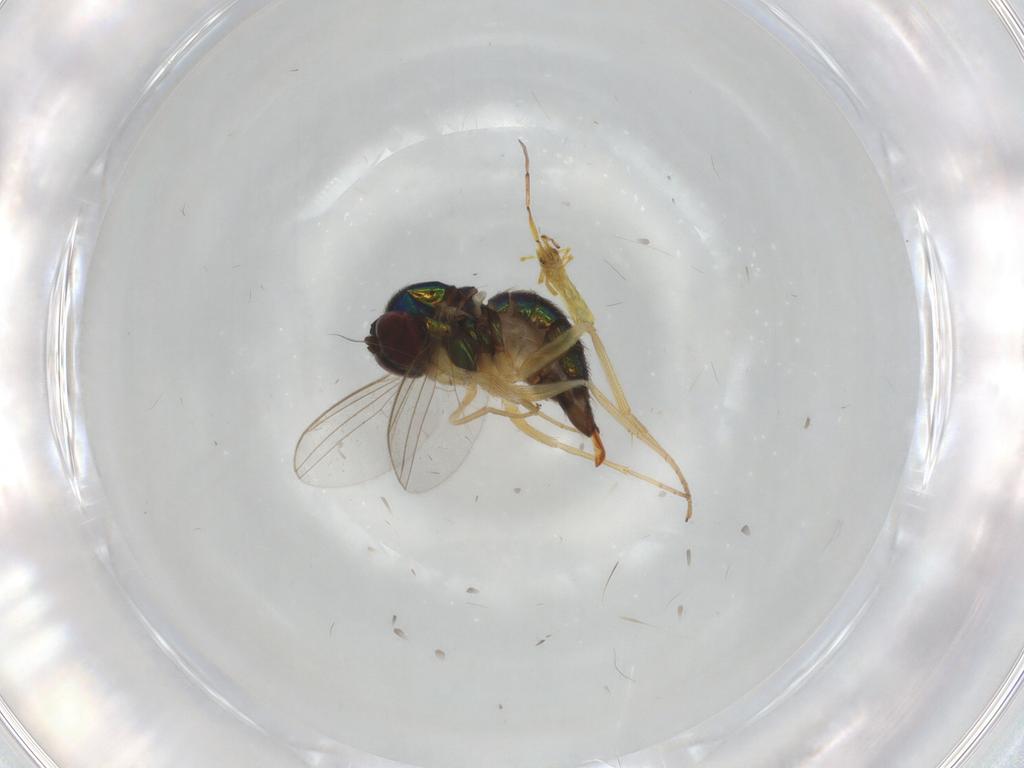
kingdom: Animalia
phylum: Arthropoda
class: Insecta
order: Diptera
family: Dolichopodidae
